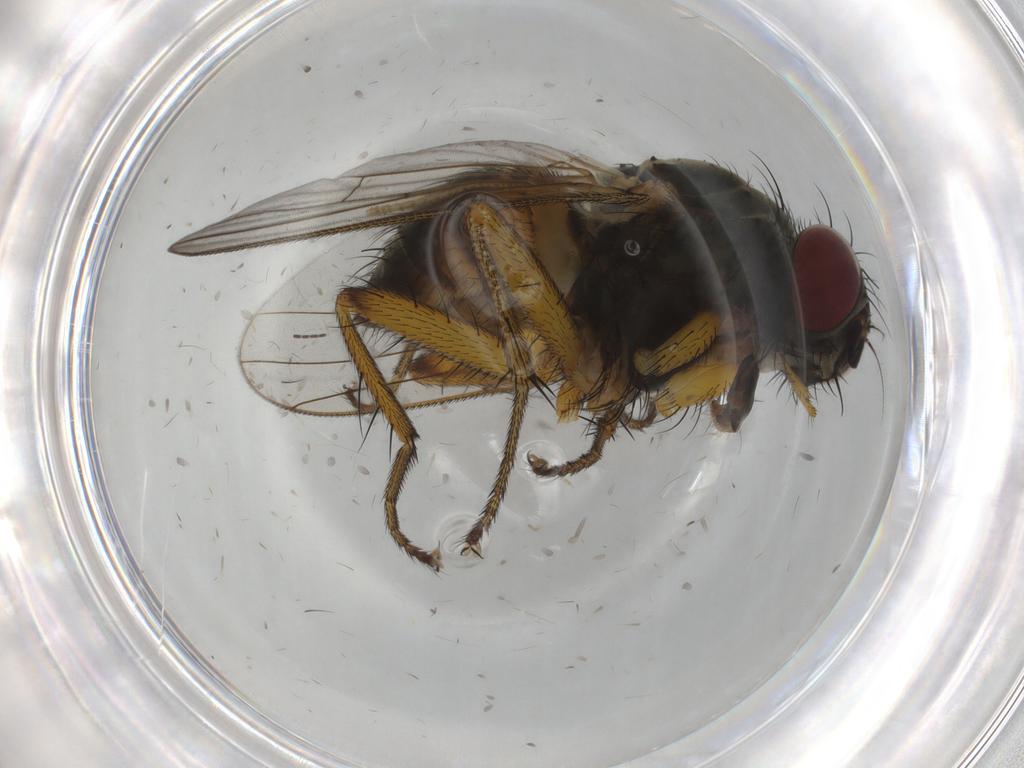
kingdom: Animalia
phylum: Arthropoda
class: Insecta
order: Diptera
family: Muscidae
